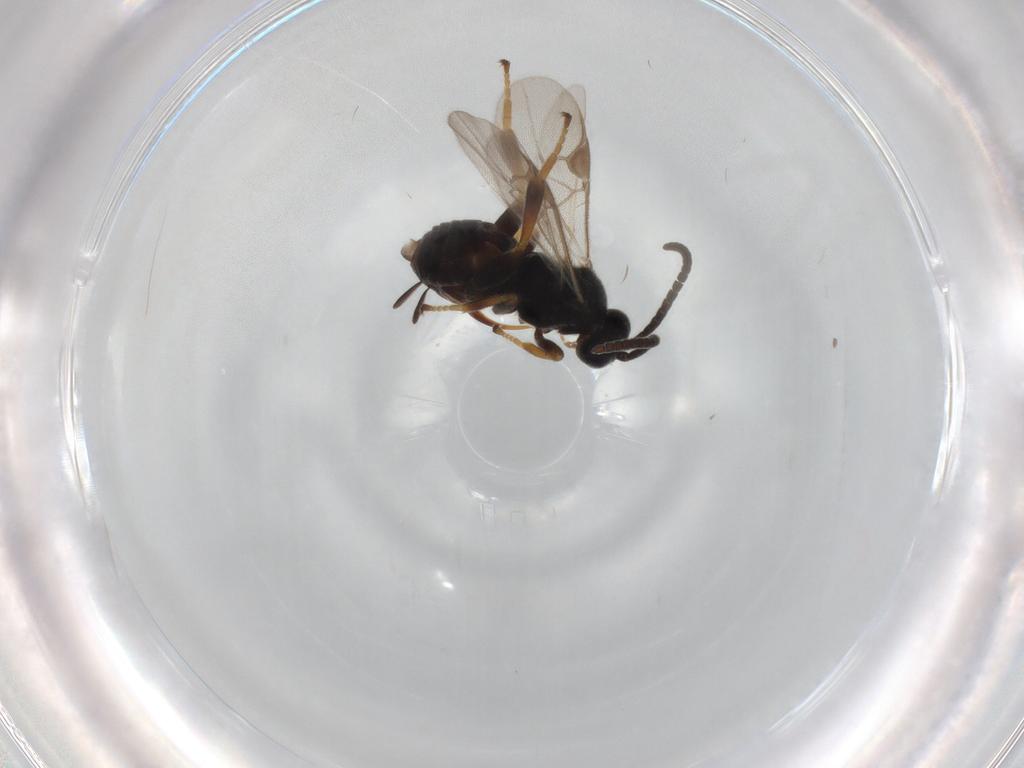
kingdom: Animalia
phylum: Arthropoda
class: Insecta
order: Hymenoptera
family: Braconidae
